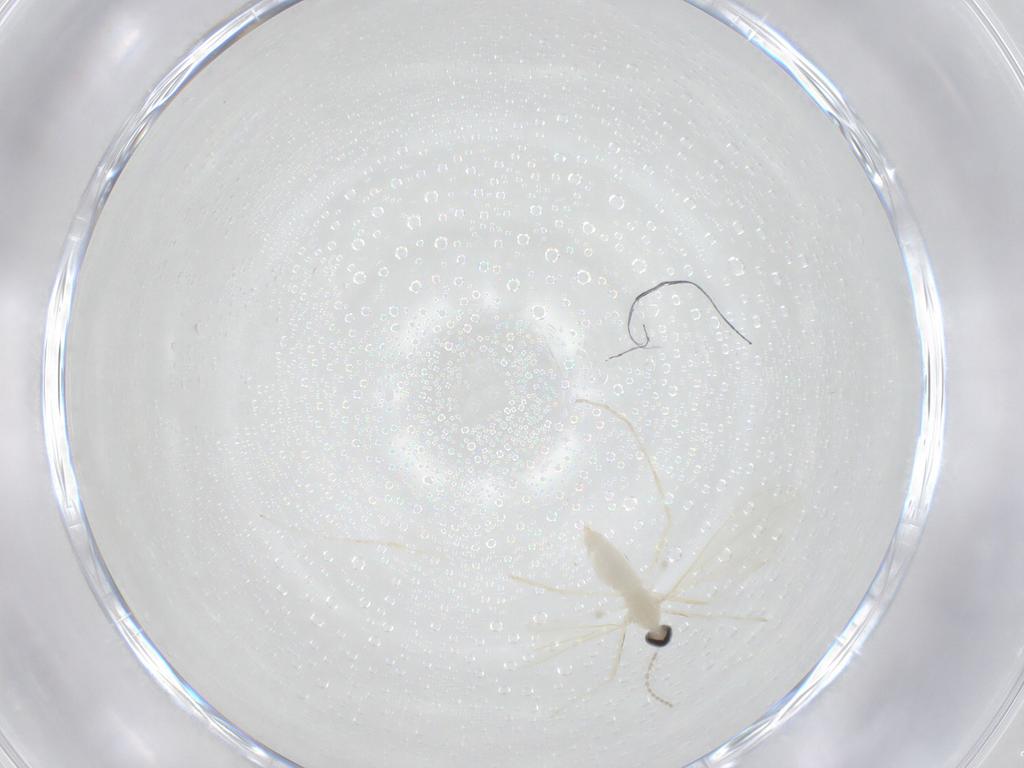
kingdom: Animalia
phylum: Arthropoda
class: Insecta
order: Diptera
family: Cecidomyiidae
